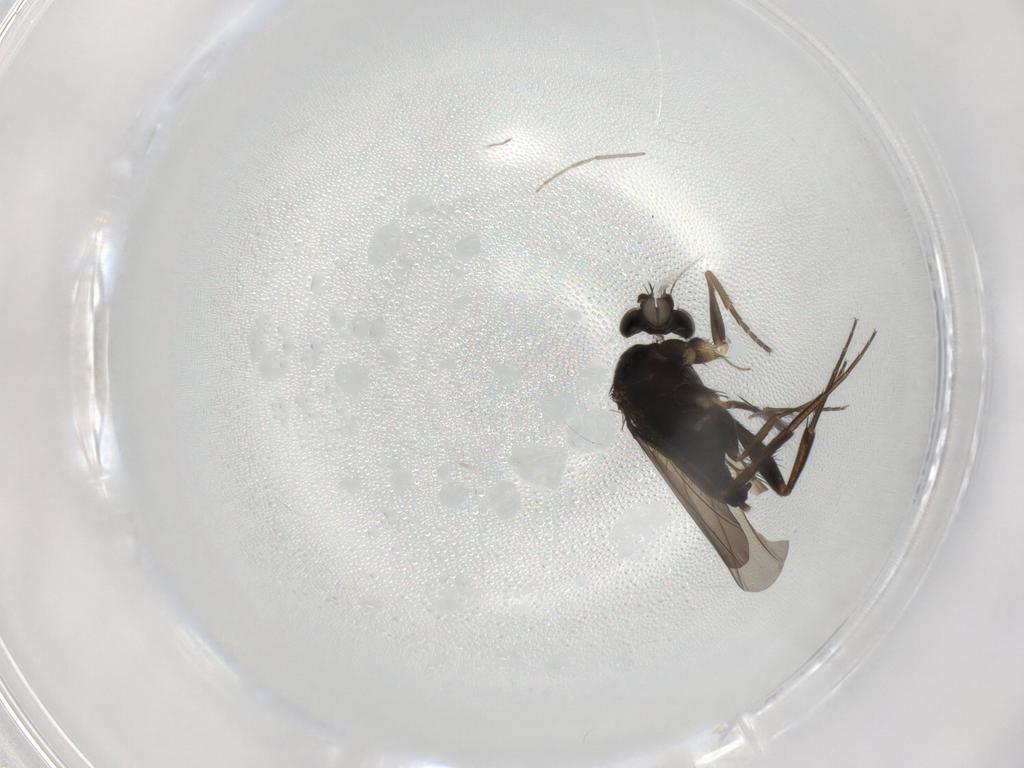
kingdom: Animalia
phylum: Arthropoda
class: Insecta
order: Diptera
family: Phoridae
